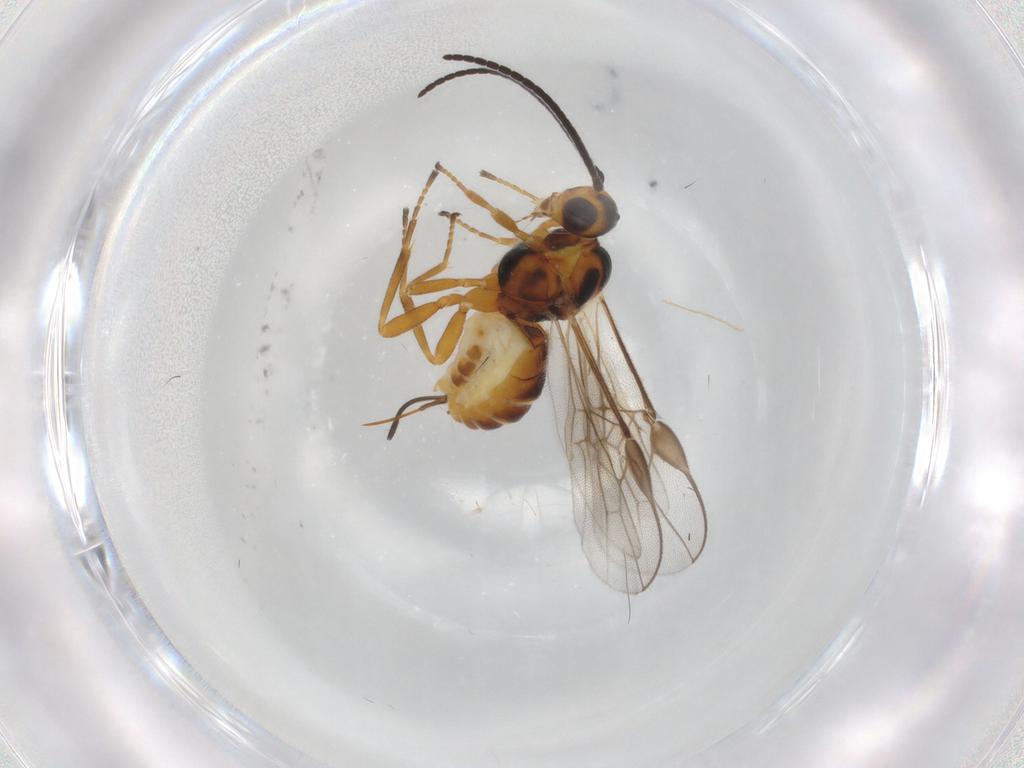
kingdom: Animalia
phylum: Arthropoda
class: Insecta
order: Hymenoptera
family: Braconidae
